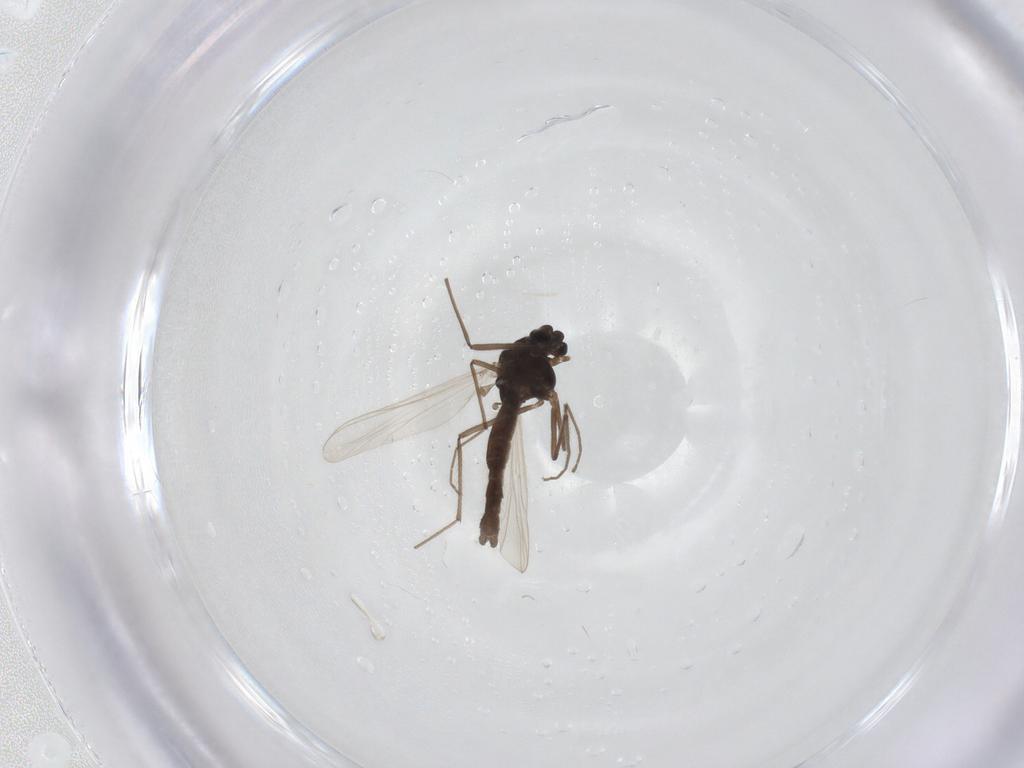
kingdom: Animalia
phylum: Arthropoda
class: Insecta
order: Diptera
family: Chironomidae
